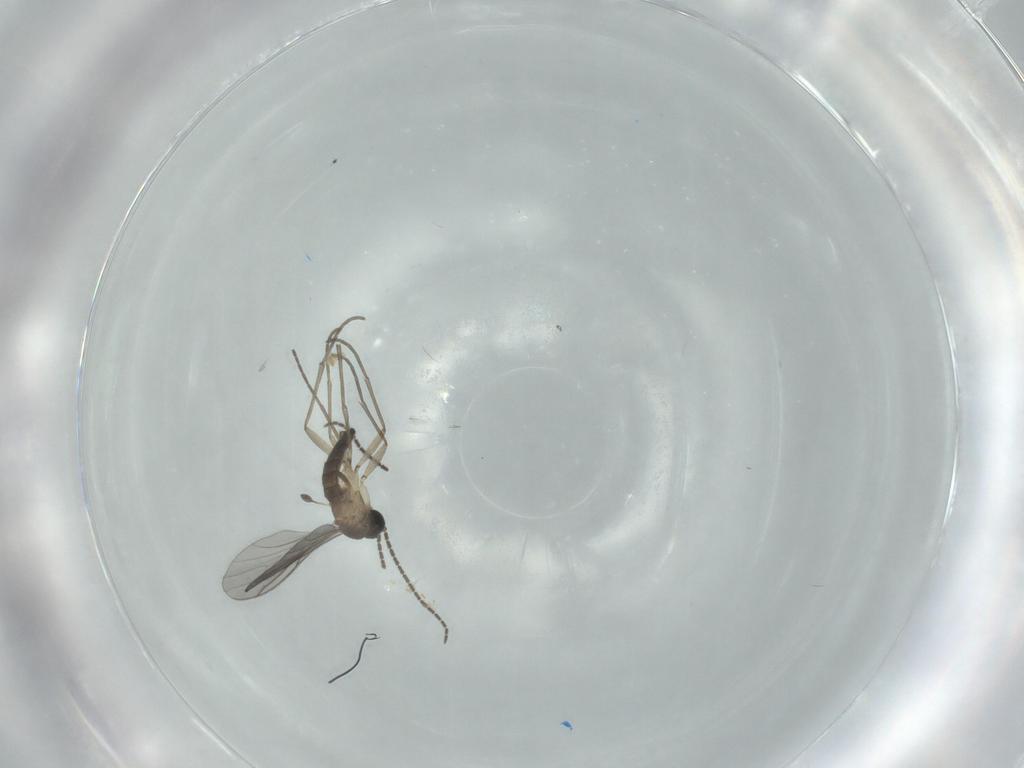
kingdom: Animalia
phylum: Arthropoda
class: Insecta
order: Diptera
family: Sciaridae
